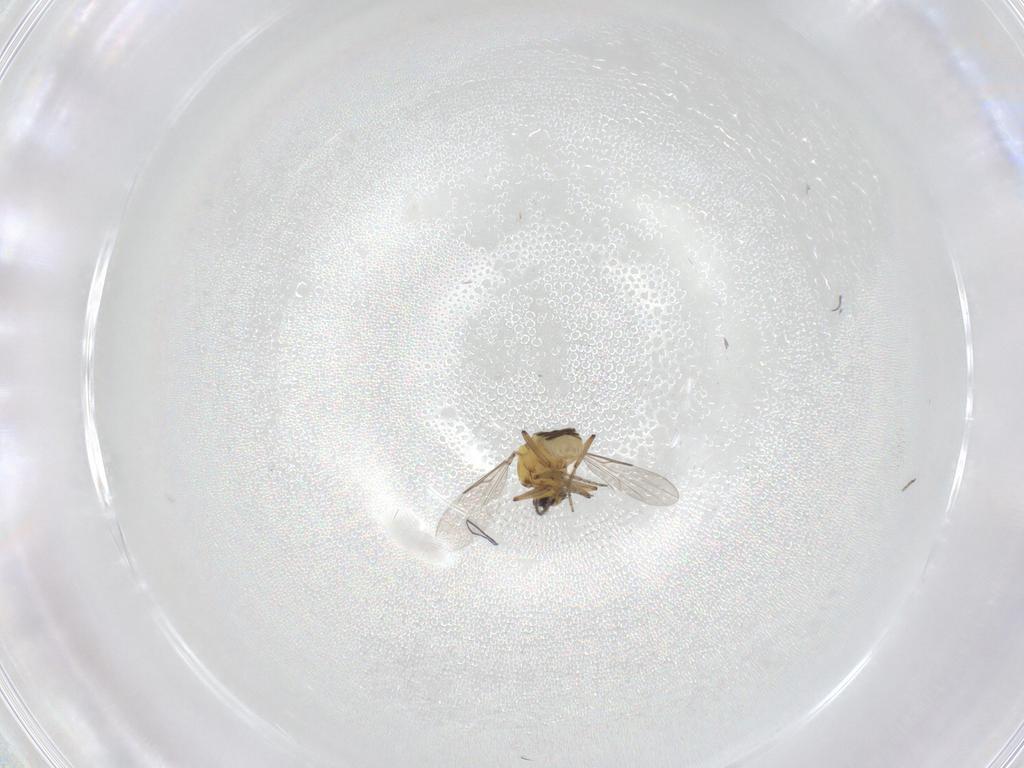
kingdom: Animalia
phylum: Arthropoda
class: Insecta
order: Diptera
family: Ceratopogonidae
